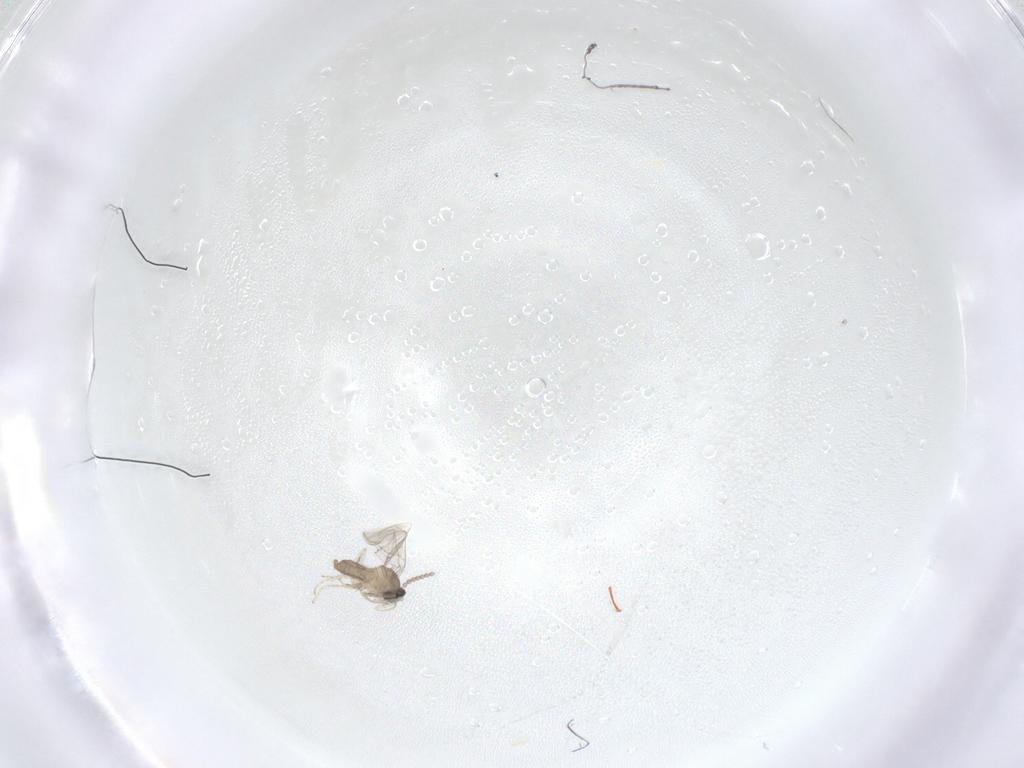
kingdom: Animalia
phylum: Arthropoda
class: Insecta
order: Diptera
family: Cecidomyiidae
